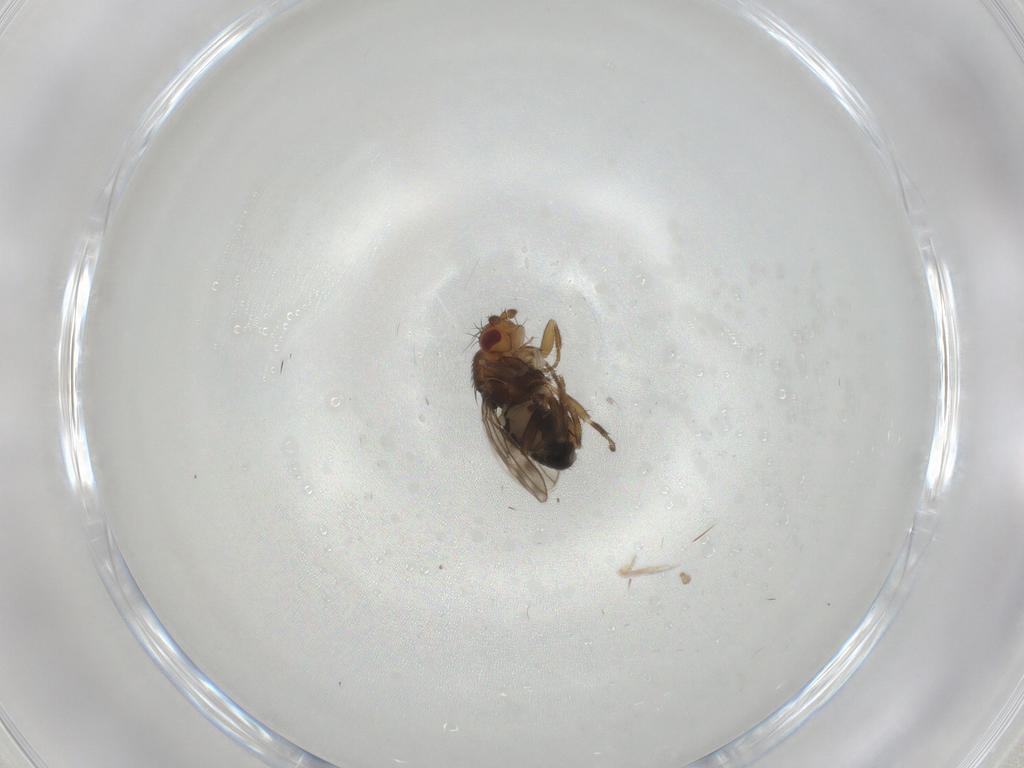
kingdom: Animalia
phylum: Arthropoda
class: Insecta
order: Diptera
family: Sphaeroceridae
